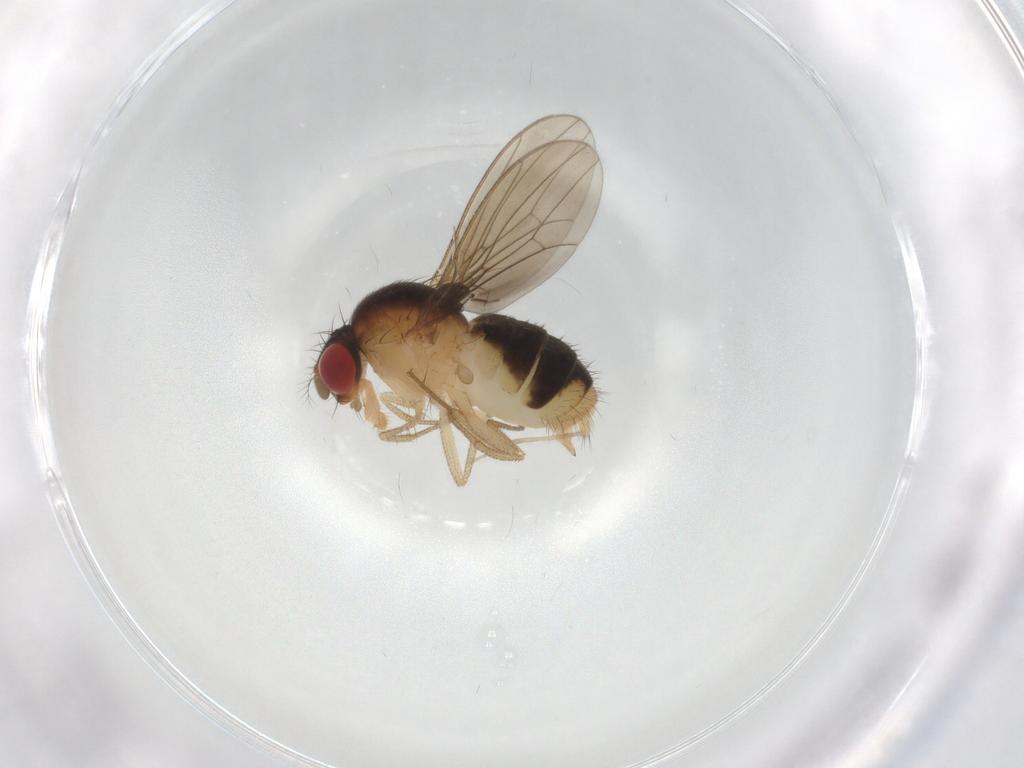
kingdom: Animalia
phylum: Arthropoda
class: Insecta
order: Diptera
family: Drosophilidae
